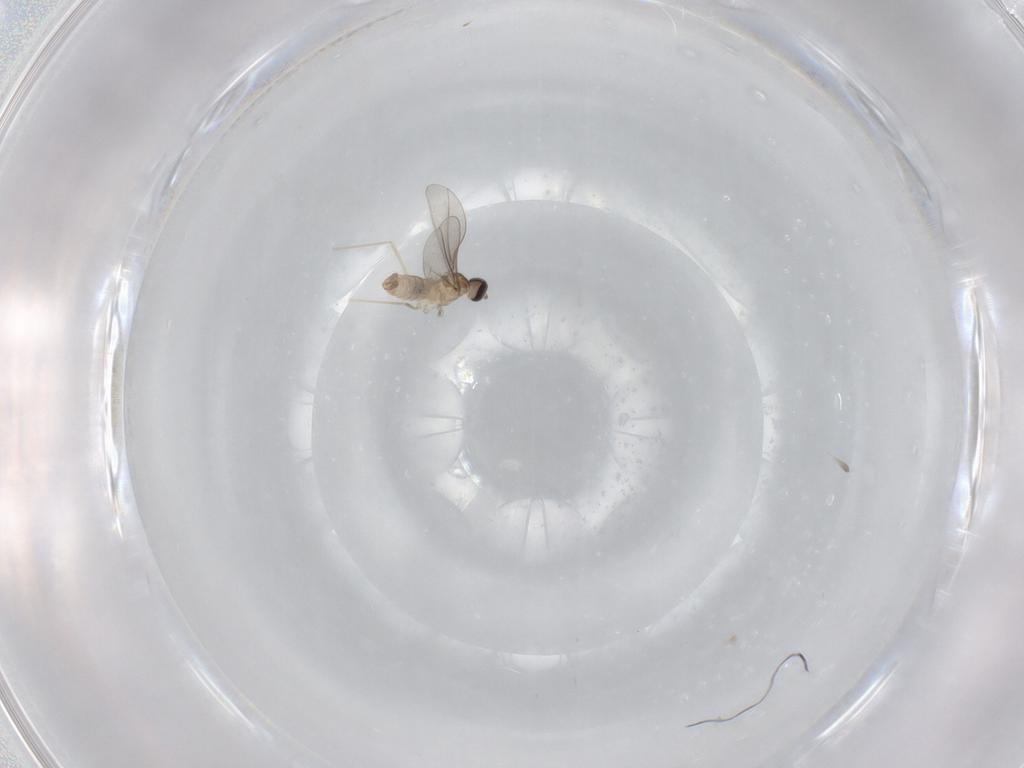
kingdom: Animalia
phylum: Arthropoda
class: Insecta
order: Diptera
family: Cecidomyiidae
